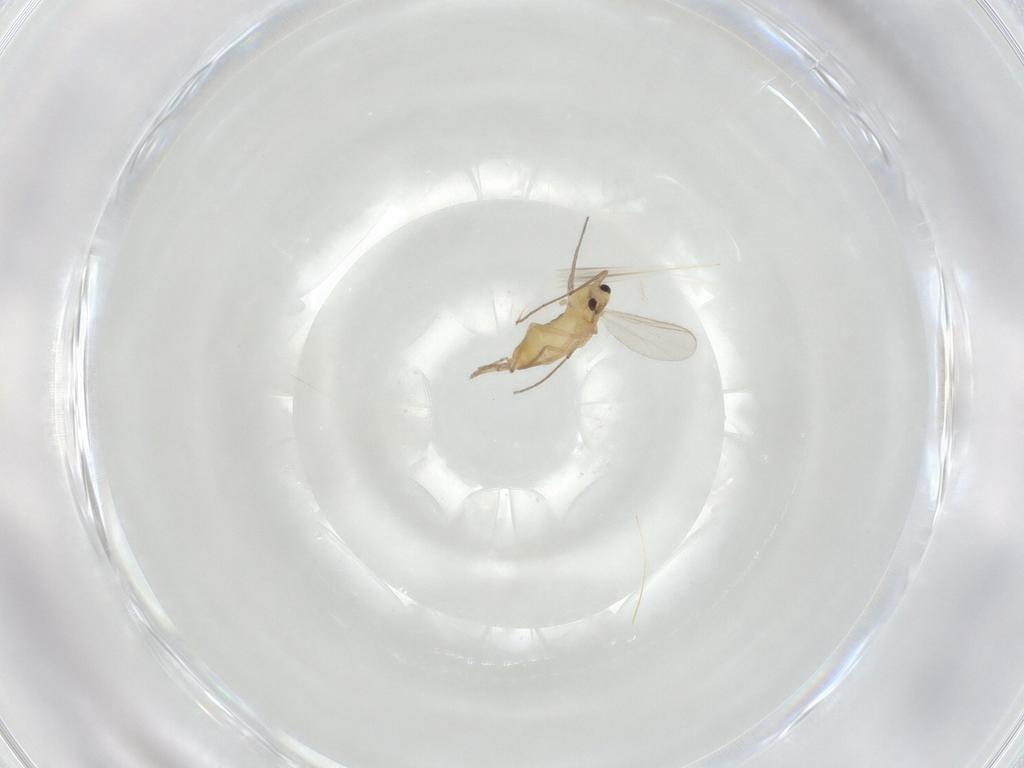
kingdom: Animalia
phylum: Arthropoda
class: Insecta
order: Diptera
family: Chironomidae
